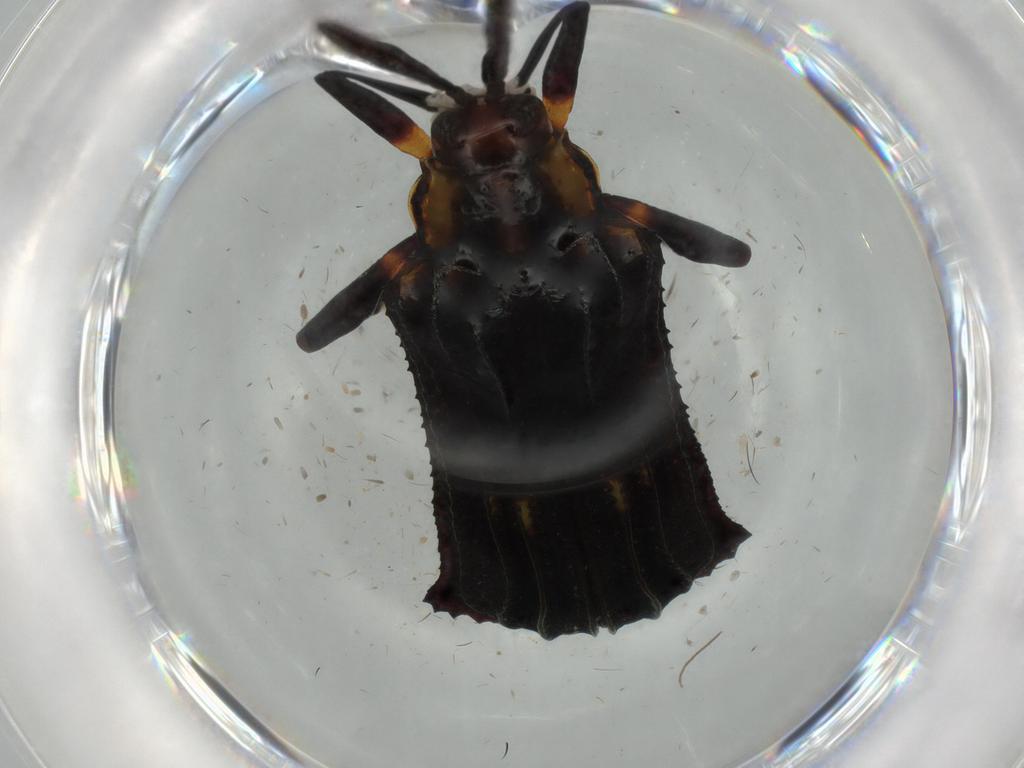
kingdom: Animalia
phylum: Arthropoda
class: Insecta
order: Coleoptera
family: Chrysomelidae
